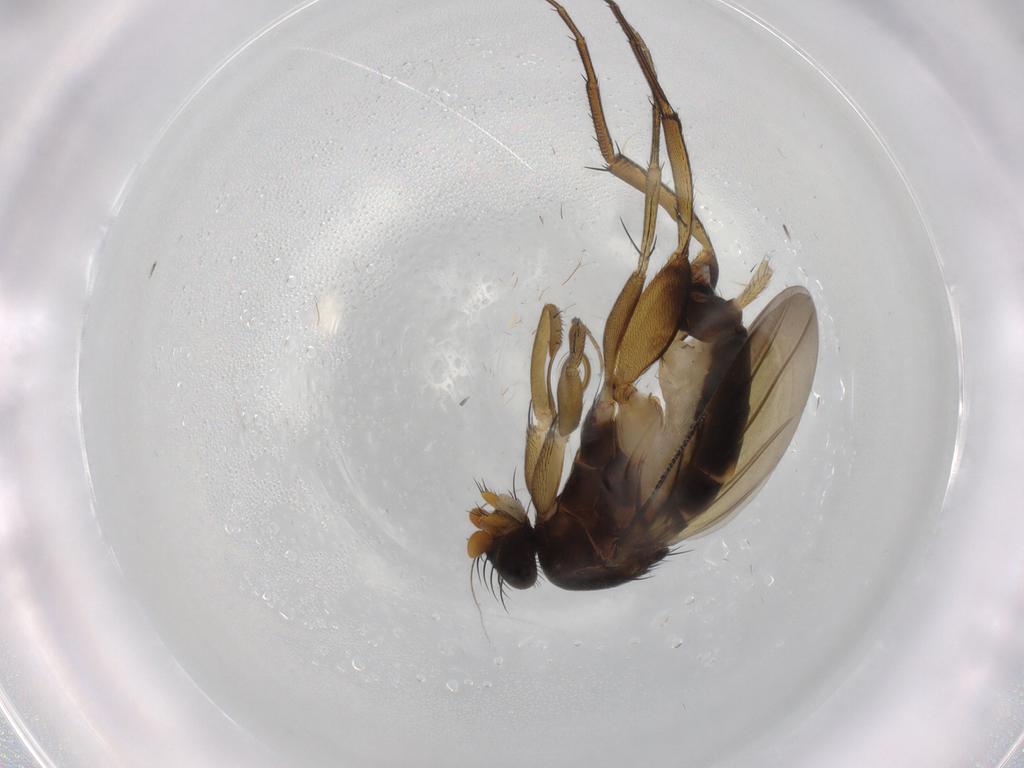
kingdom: Animalia
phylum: Arthropoda
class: Insecta
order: Diptera
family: Phoridae
